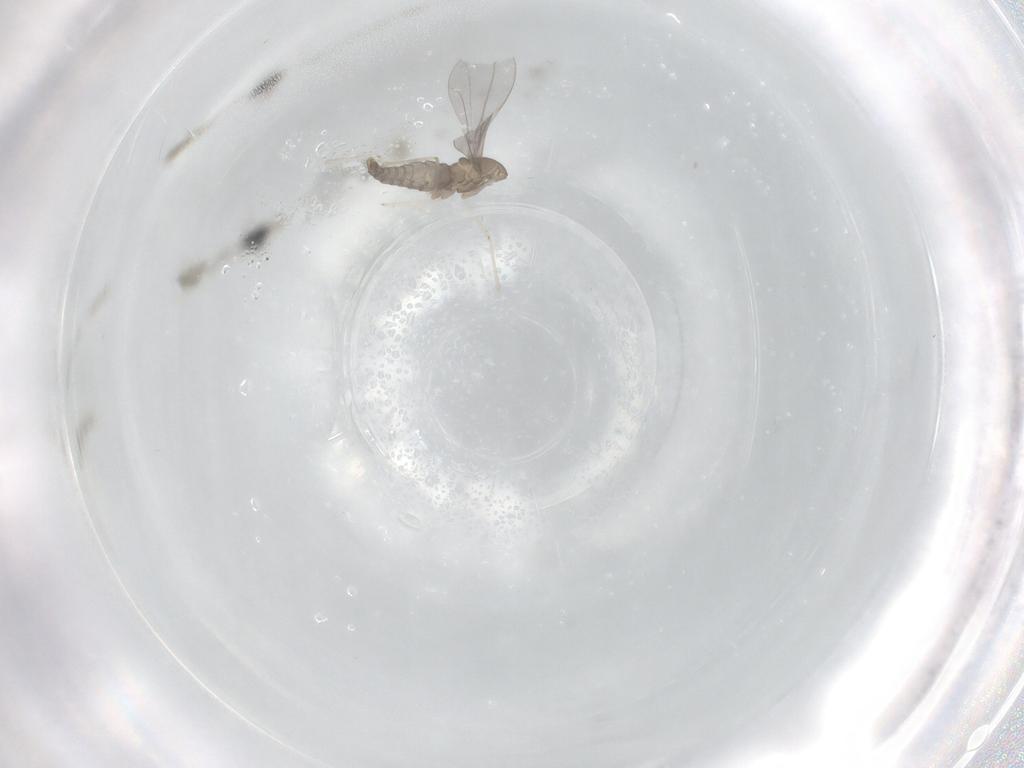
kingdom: Animalia
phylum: Arthropoda
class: Insecta
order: Diptera
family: Cecidomyiidae
